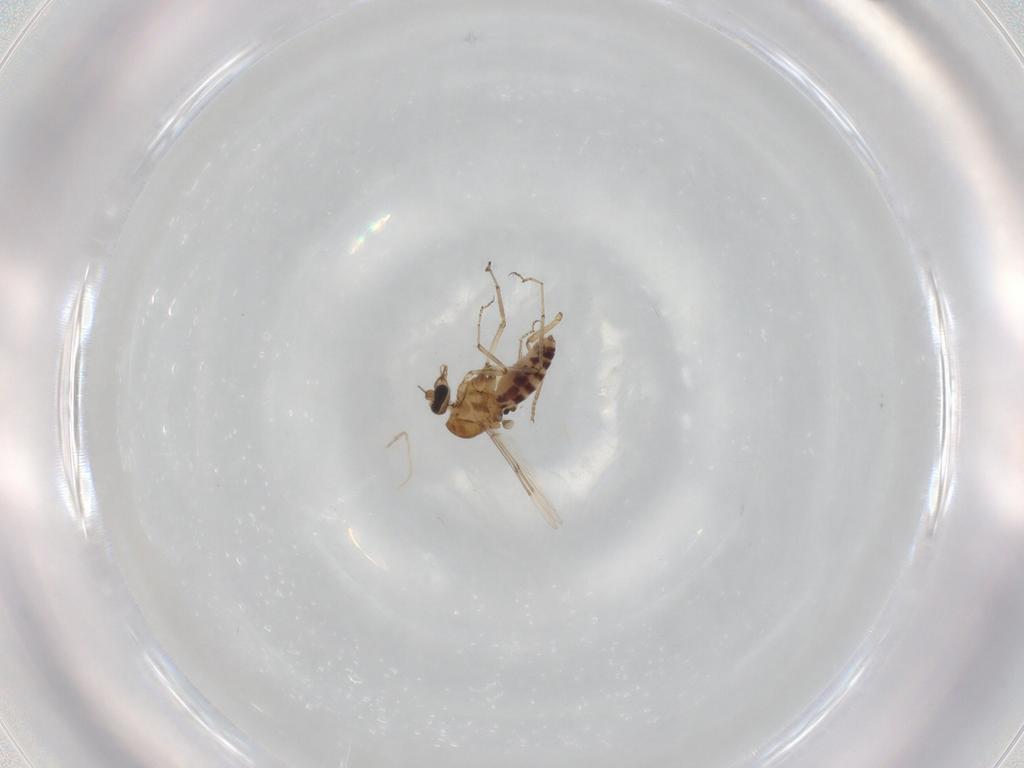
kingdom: Animalia
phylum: Arthropoda
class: Insecta
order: Diptera
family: Ceratopogonidae
